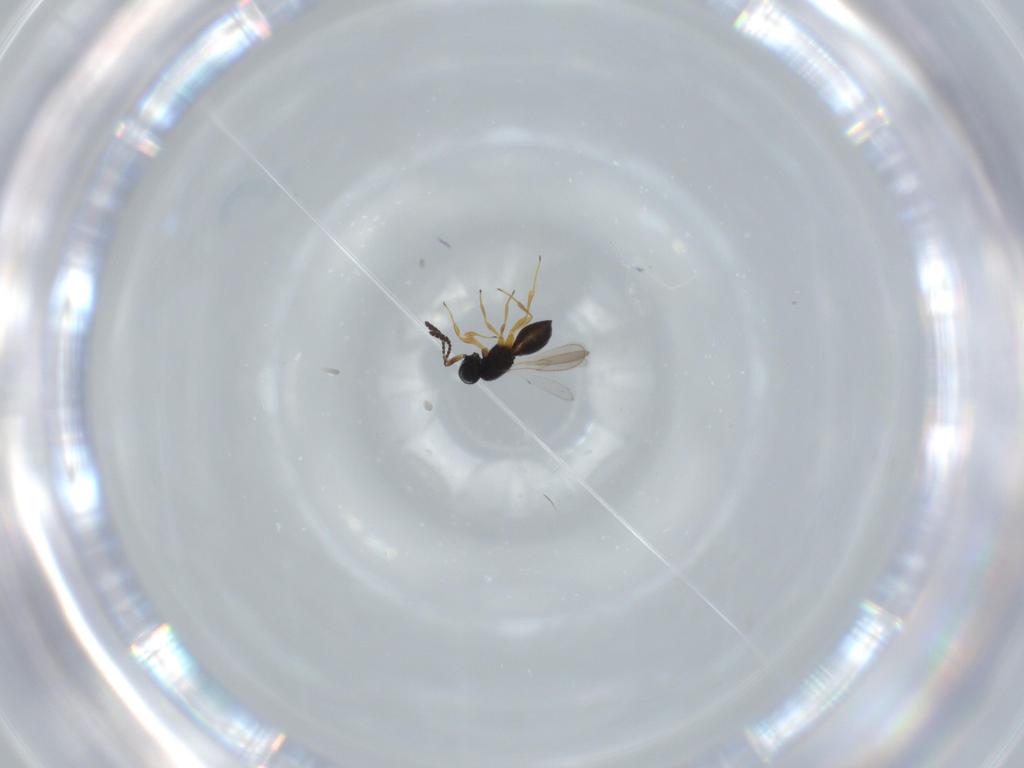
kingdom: Animalia
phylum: Arthropoda
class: Insecta
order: Hymenoptera
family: Scelionidae
